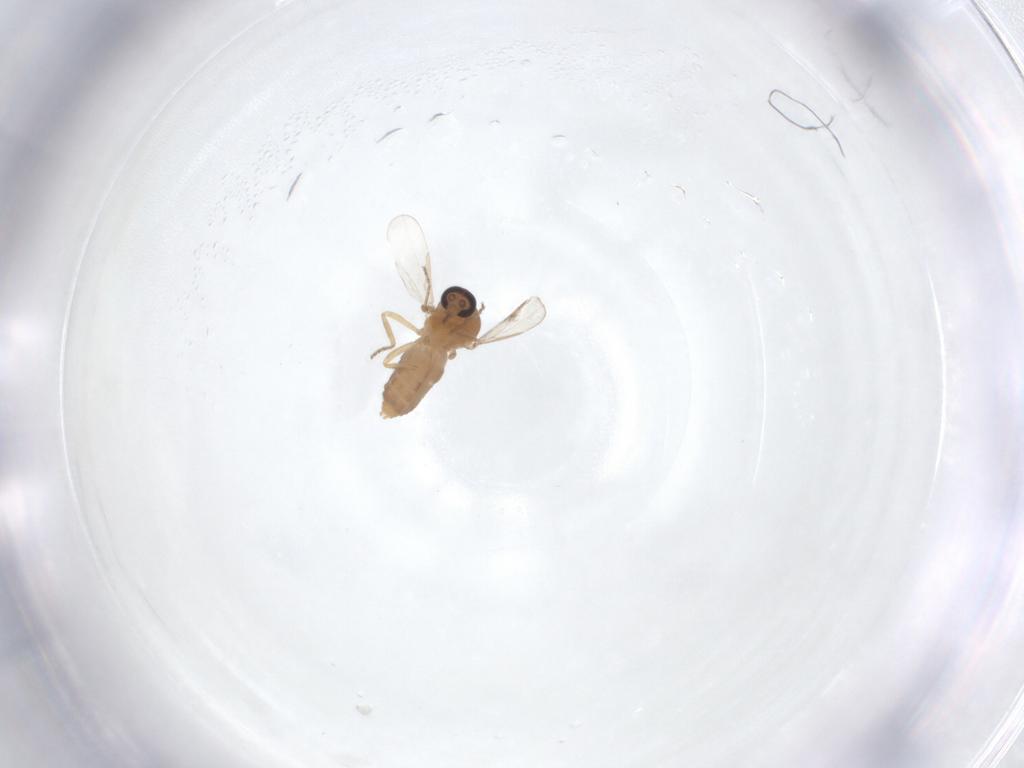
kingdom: Animalia
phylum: Arthropoda
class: Insecta
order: Diptera
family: Ceratopogonidae
